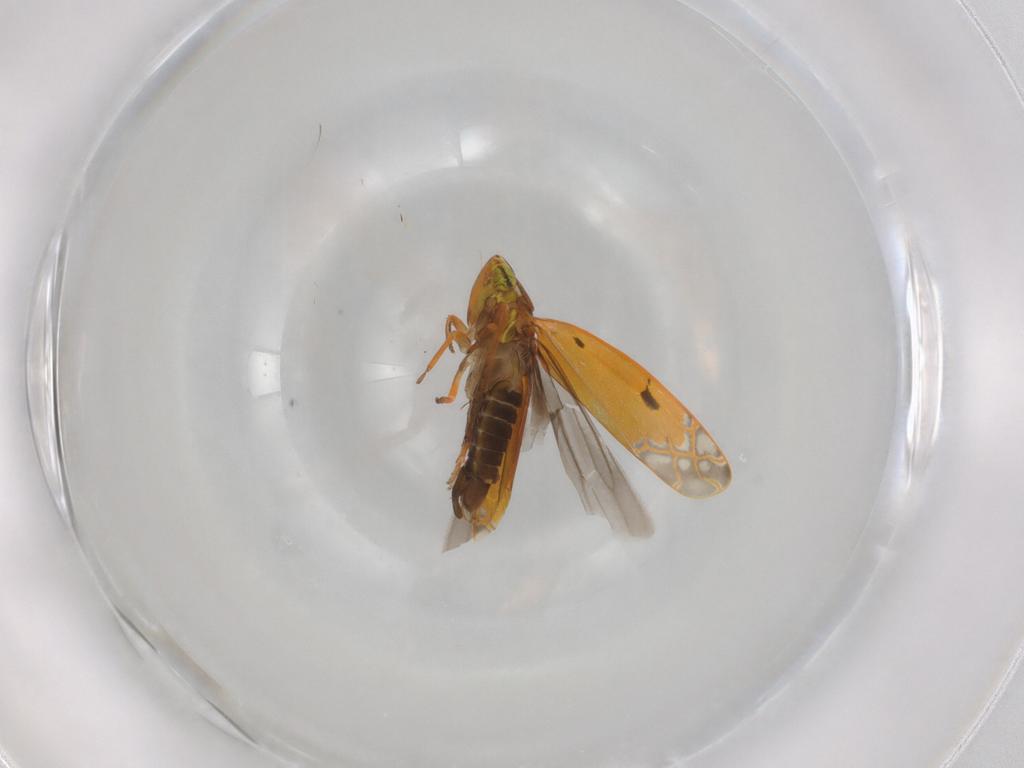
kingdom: Animalia
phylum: Arthropoda
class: Insecta
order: Hemiptera
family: Cicadellidae
